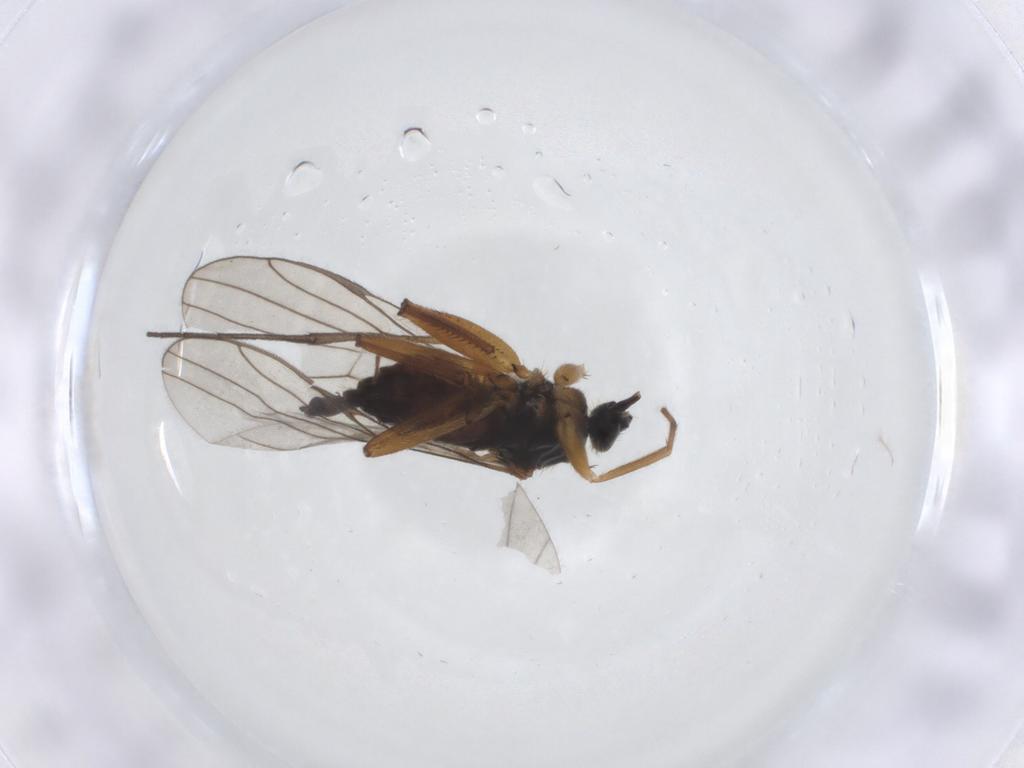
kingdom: Animalia
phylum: Arthropoda
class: Insecta
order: Diptera
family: Hybotidae
